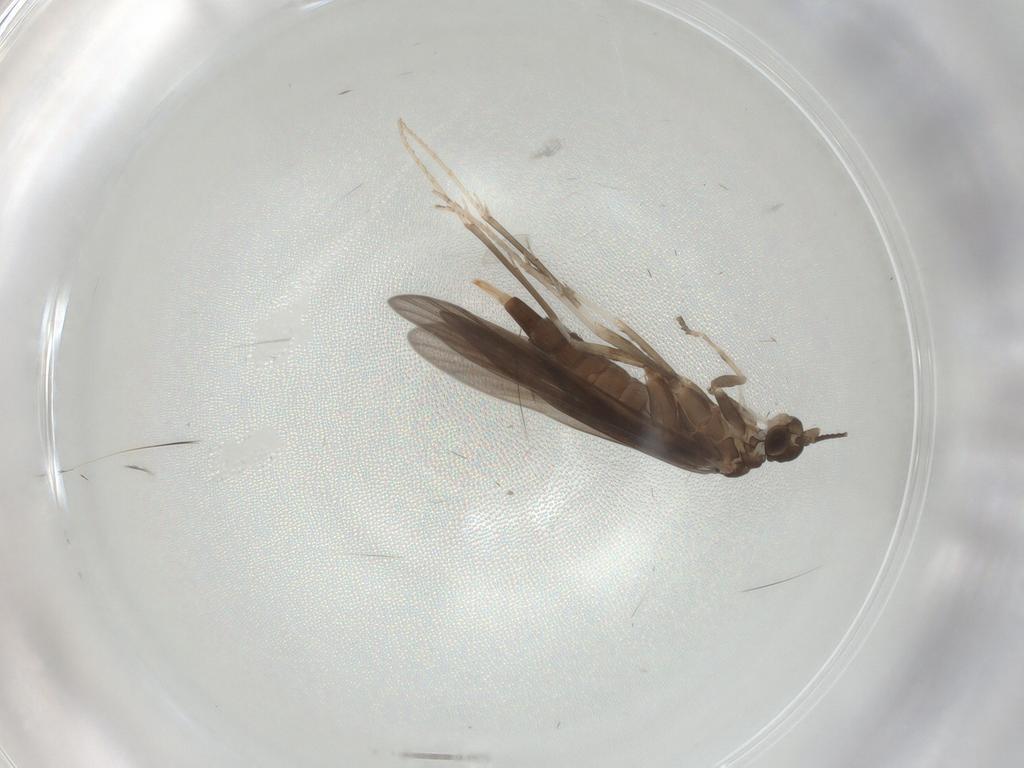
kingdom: Animalia
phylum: Arthropoda
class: Insecta
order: Trichoptera
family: Xiphocentronidae
